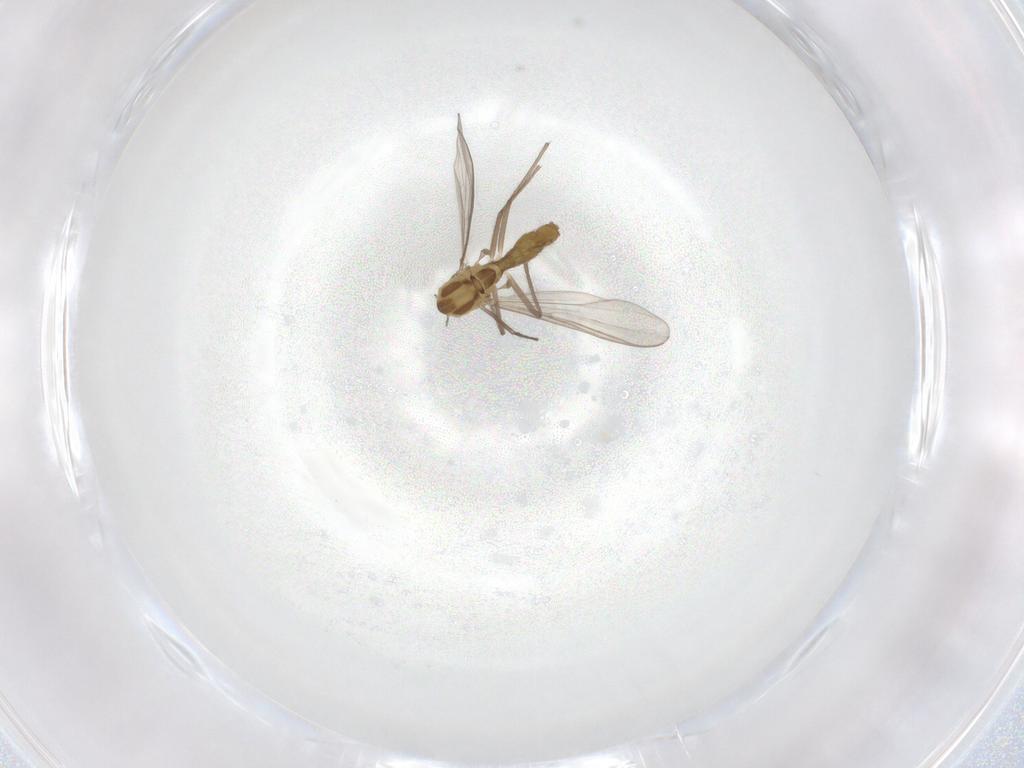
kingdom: Animalia
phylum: Arthropoda
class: Insecta
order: Diptera
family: Chironomidae
